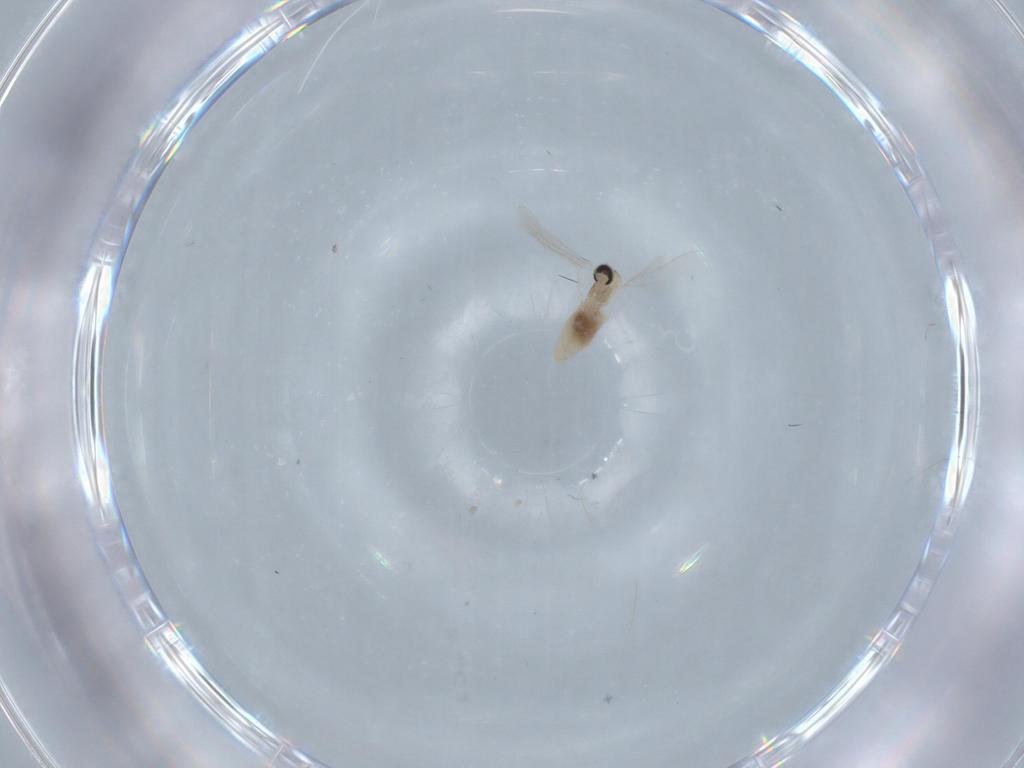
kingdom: Animalia
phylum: Arthropoda
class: Insecta
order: Diptera
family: Cecidomyiidae
